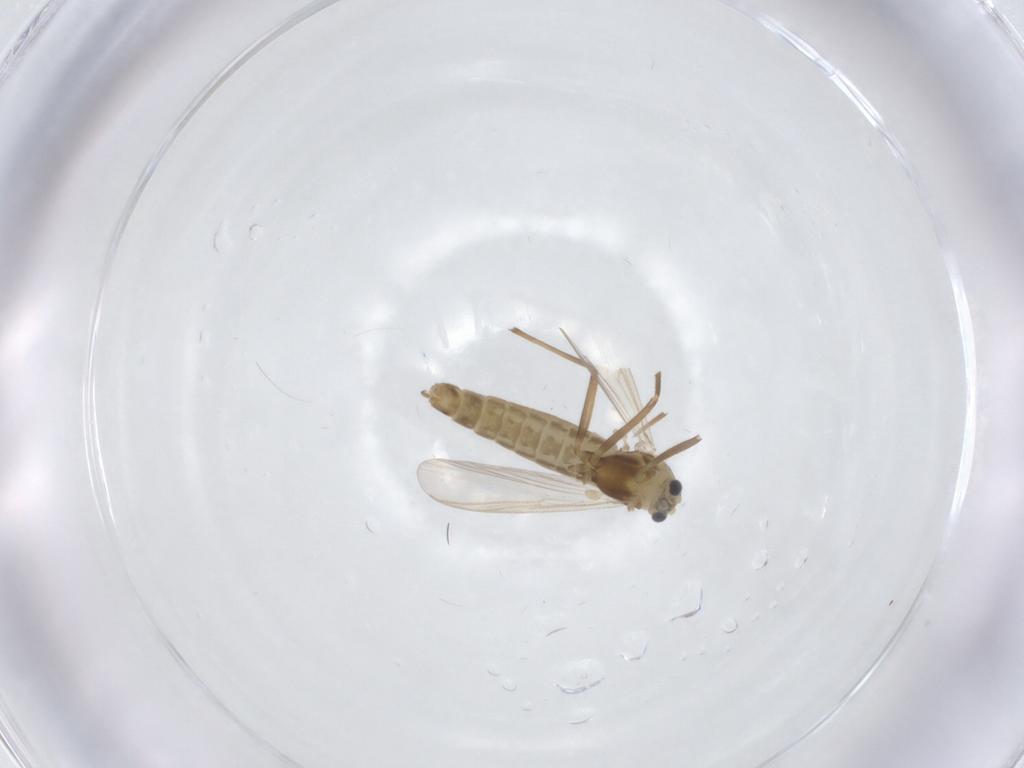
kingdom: Animalia
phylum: Arthropoda
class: Insecta
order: Diptera
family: Chironomidae
